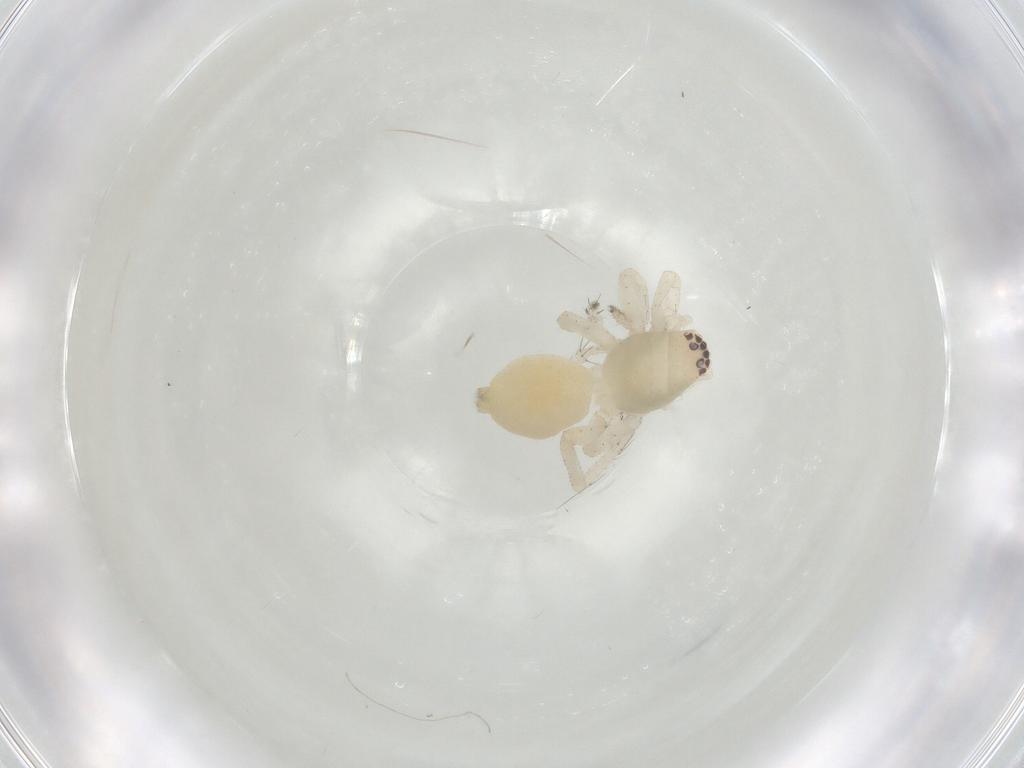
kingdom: Animalia
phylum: Arthropoda
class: Arachnida
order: Araneae
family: Clubionidae
